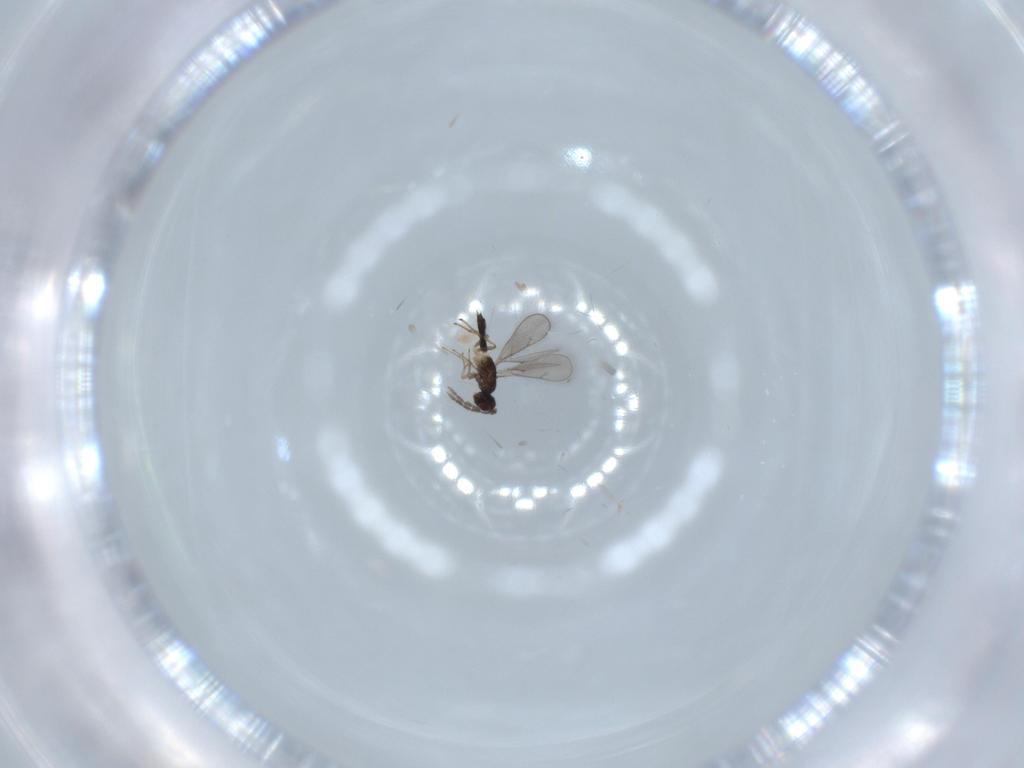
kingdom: Animalia
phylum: Arthropoda
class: Insecta
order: Hymenoptera
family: Eulophidae
